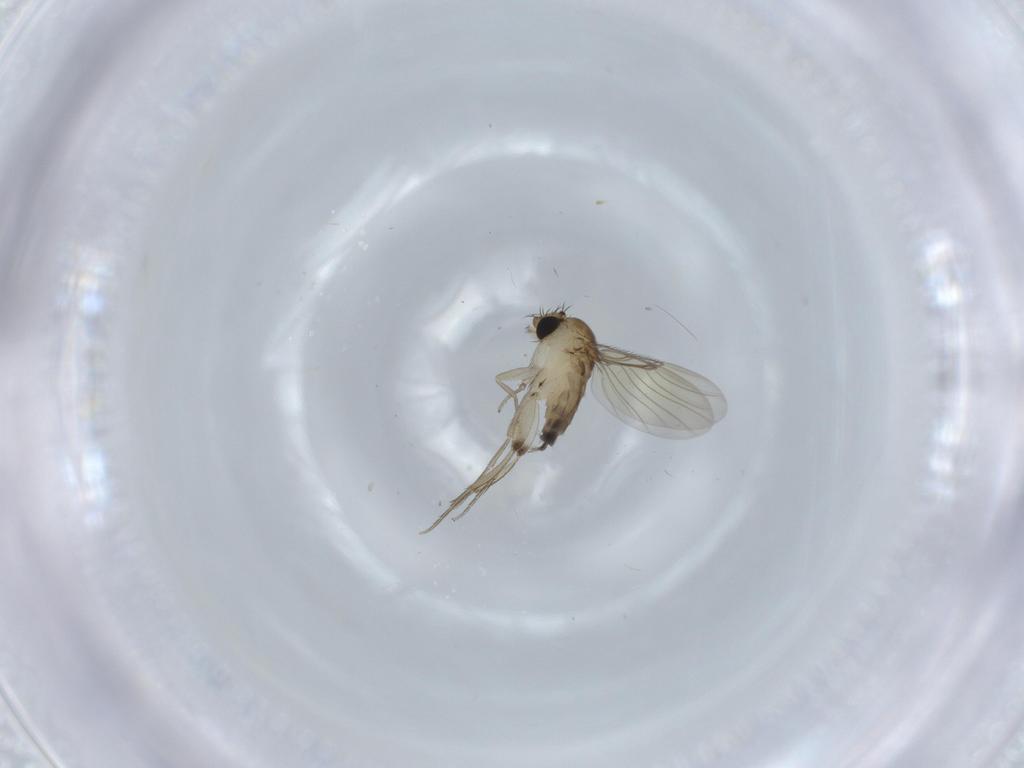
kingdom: Animalia
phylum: Arthropoda
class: Insecta
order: Diptera
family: Phoridae
